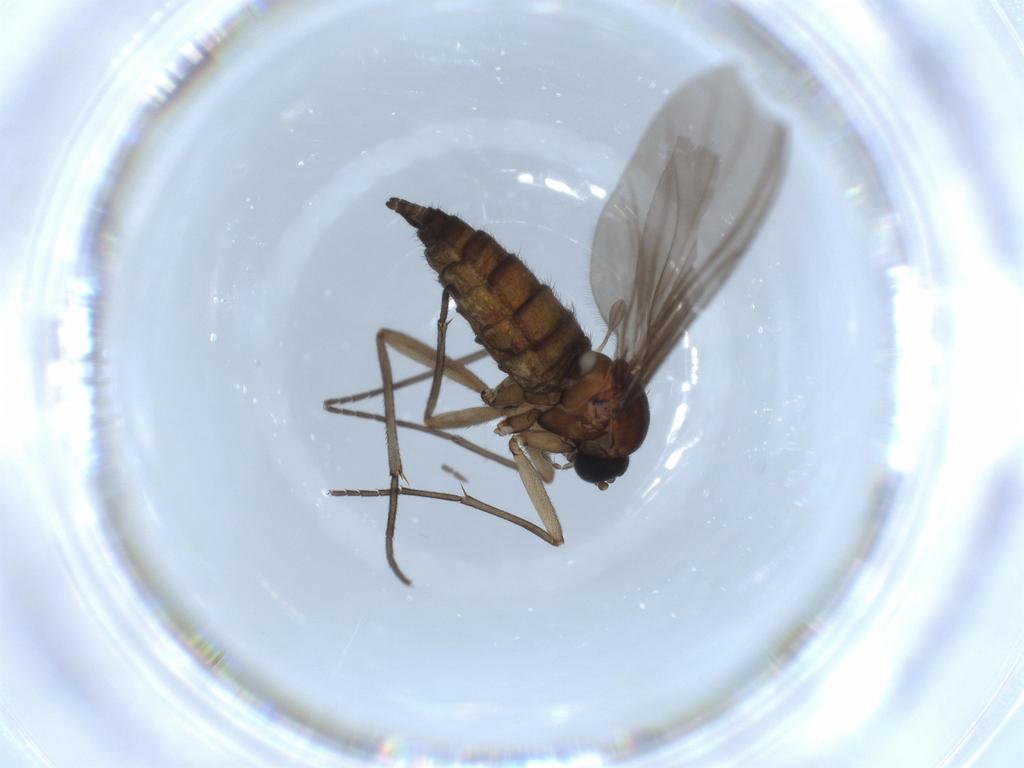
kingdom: Animalia
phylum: Arthropoda
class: Insecta
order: Diptera
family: Sciaridae
